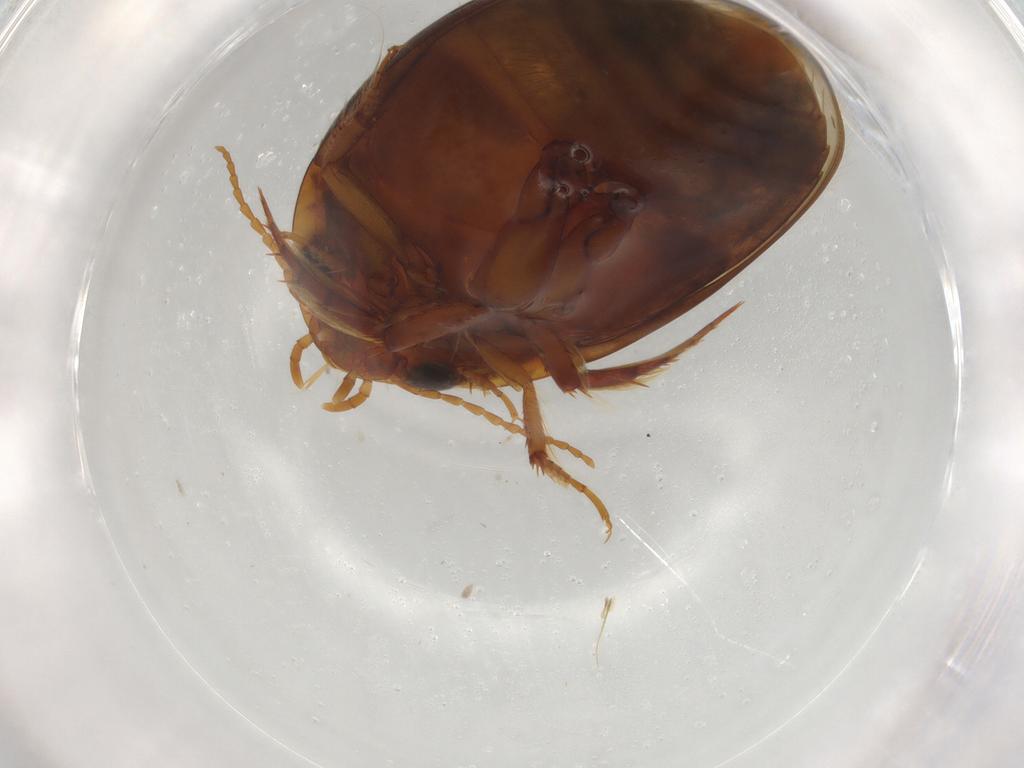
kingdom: Animalia
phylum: Arthropoda
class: Insecta
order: Coleoptera
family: Dytiscidae
